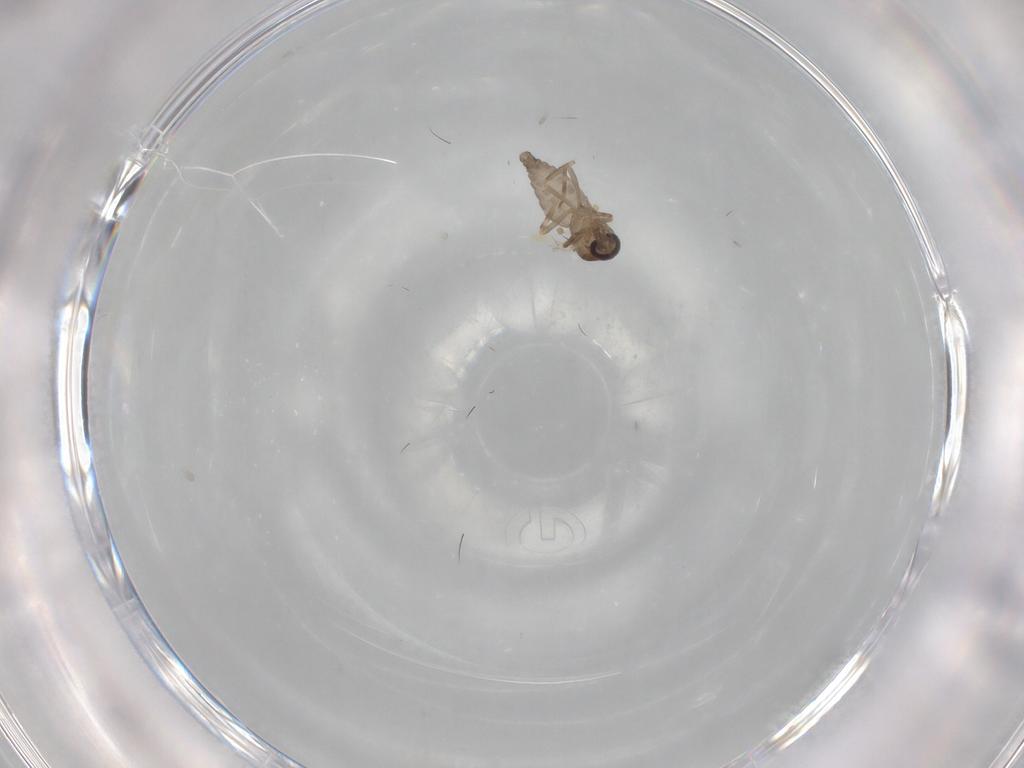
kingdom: Animalia
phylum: Arthropoda
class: Insecta
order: Diptera
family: Ceratopogonidae
